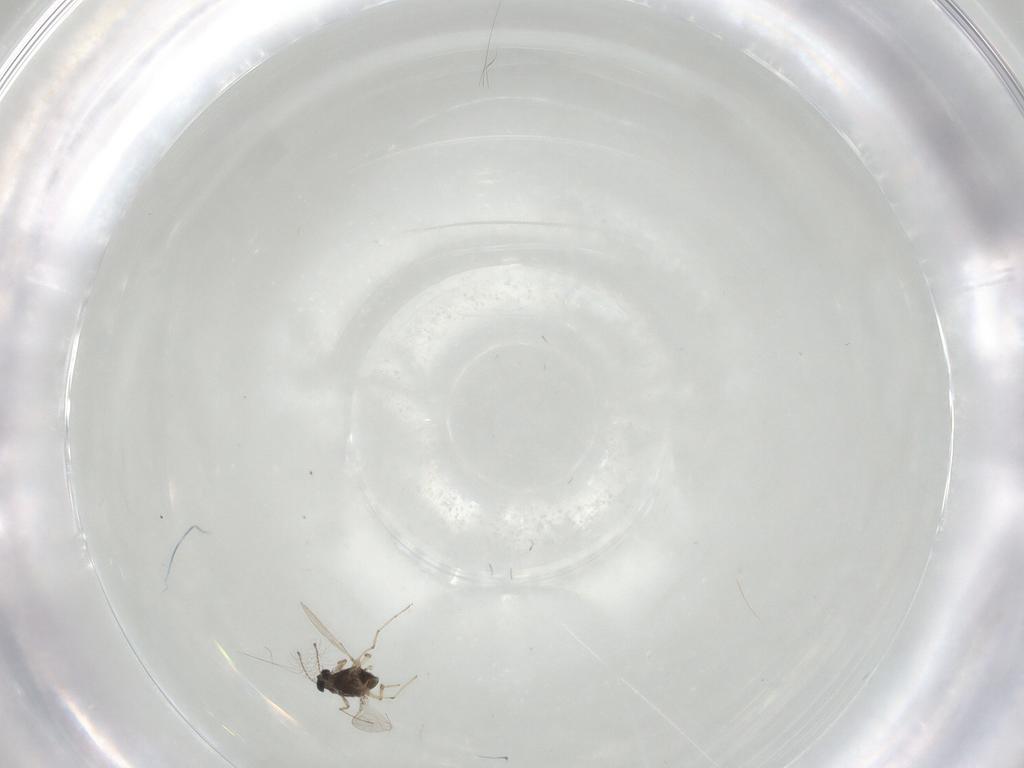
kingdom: Animalia
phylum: Arthropoda
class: Insecta
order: Diptera
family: Chironomidae
